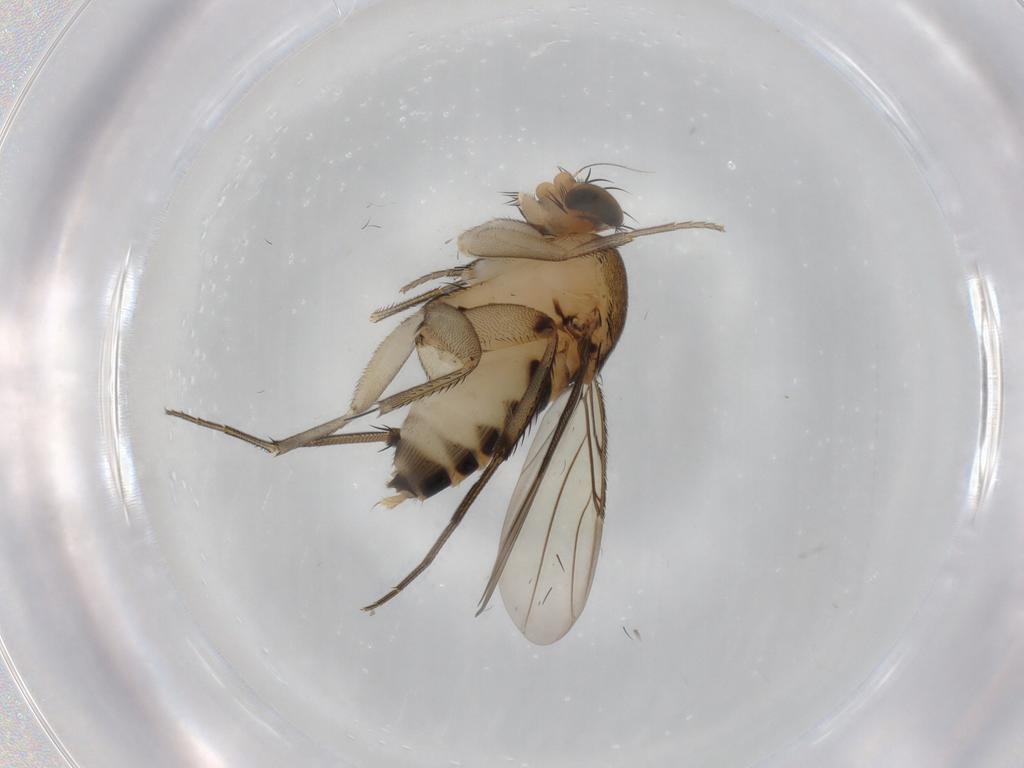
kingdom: Animalia
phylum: Arthropoda
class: Insecta
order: Diptera
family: Dolichopodidae
